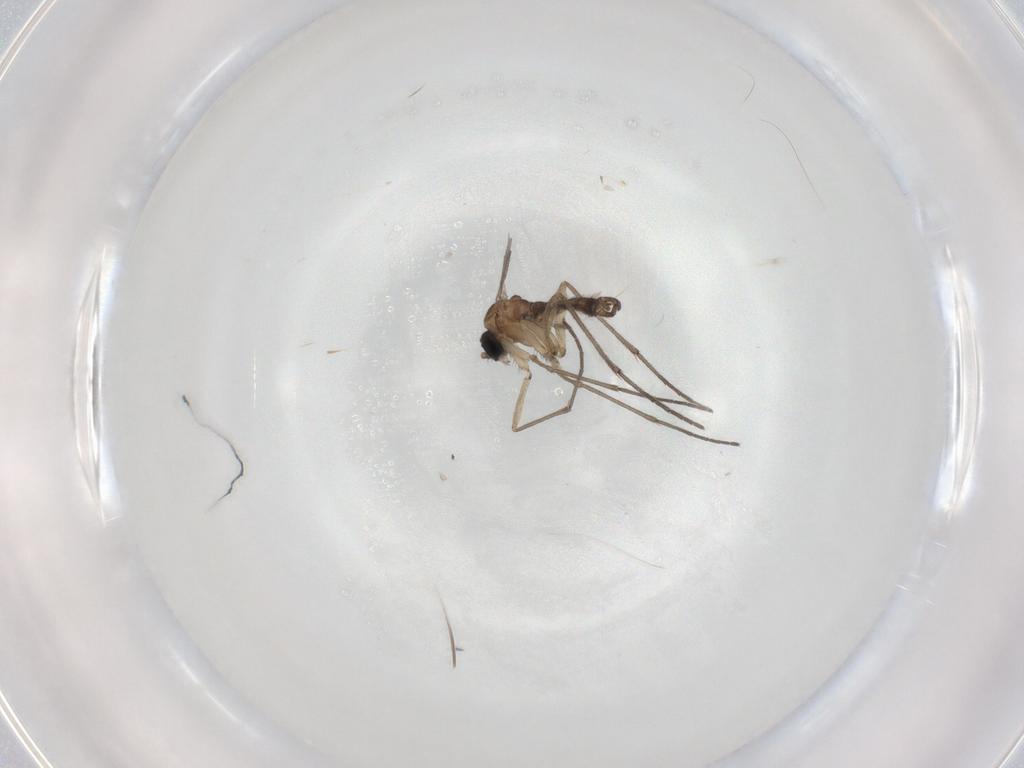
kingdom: Animalia
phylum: Arthropoda
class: Insecta
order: Diptera
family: Sciaridae
